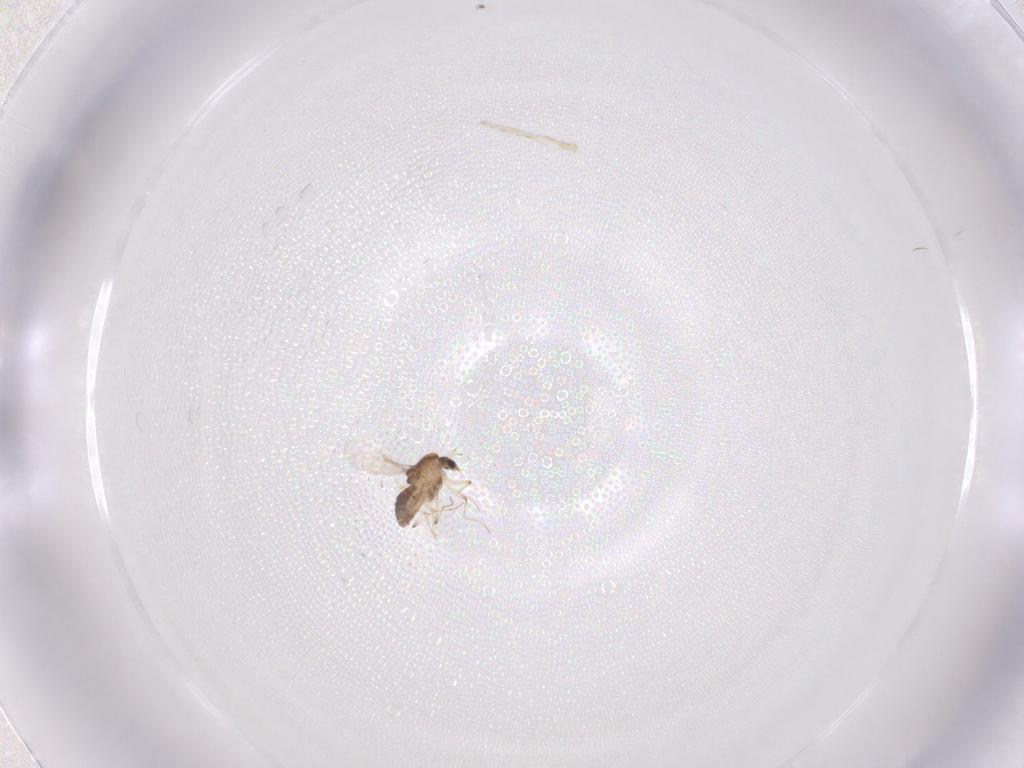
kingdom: Animalia
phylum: Arthropoda
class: Insecta
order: Diptera
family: Chironomidae
